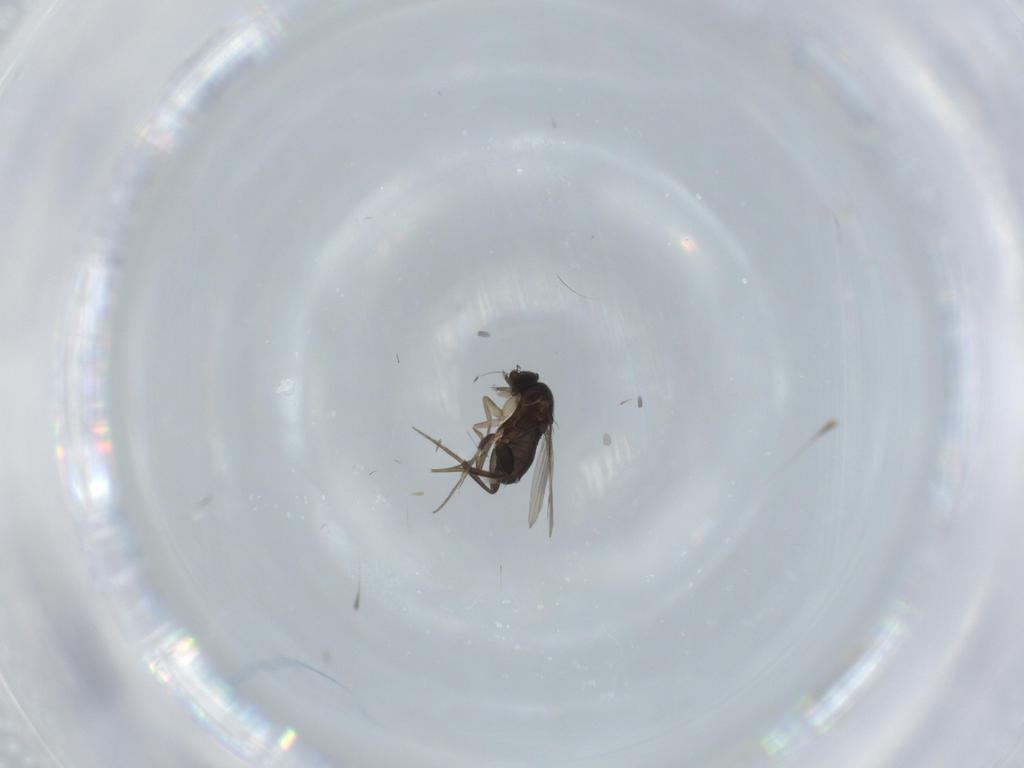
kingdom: Animalia
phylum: Arthropoda
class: Insecta
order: Diptera
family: Phoridae
